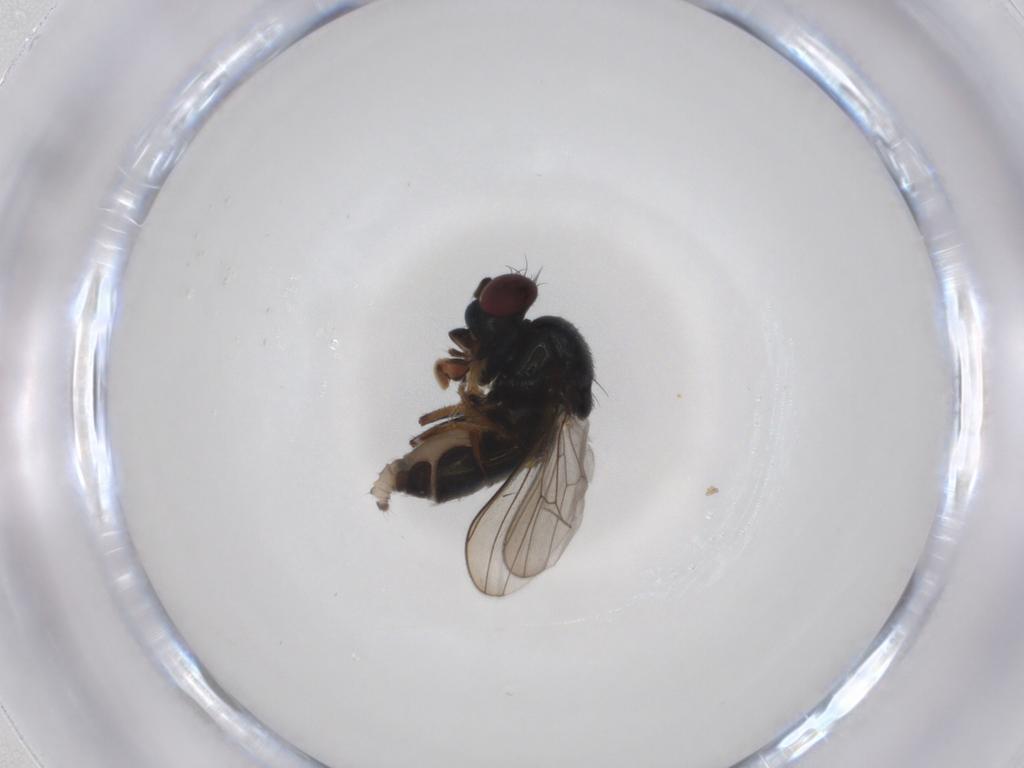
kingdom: Animalia
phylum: Arthropoda
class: Insecta
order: Diptera
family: Ephydridae
